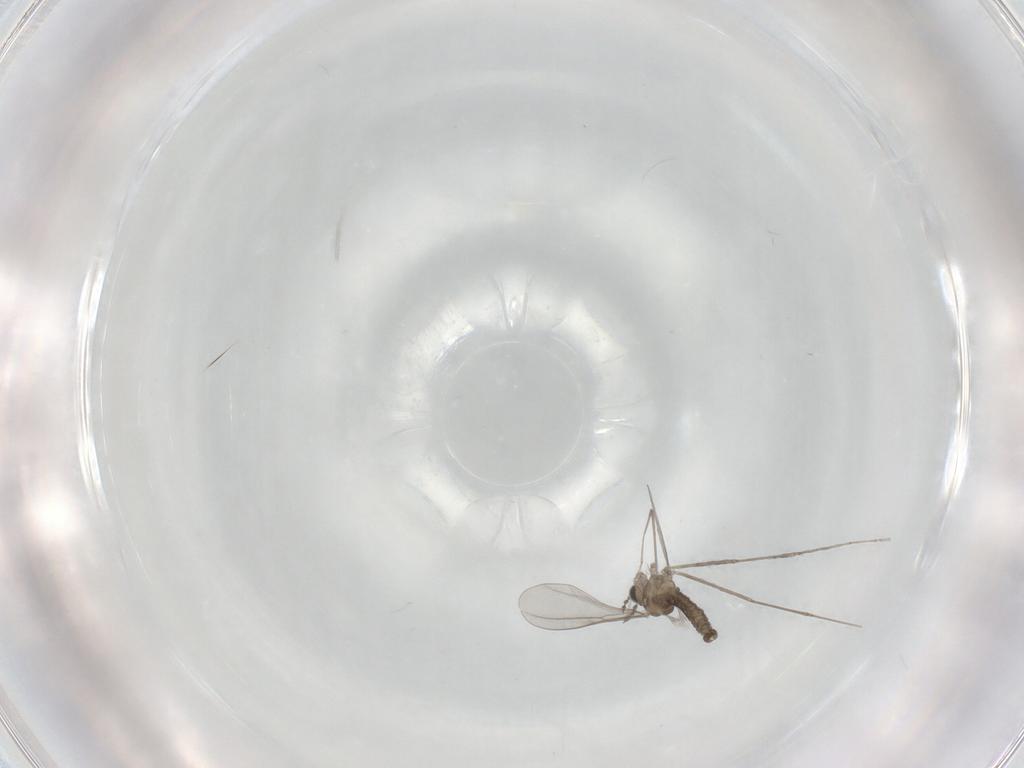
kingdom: Animalia
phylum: Arthropoda
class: Insecta
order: Diptera
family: Cecidomyiidae
